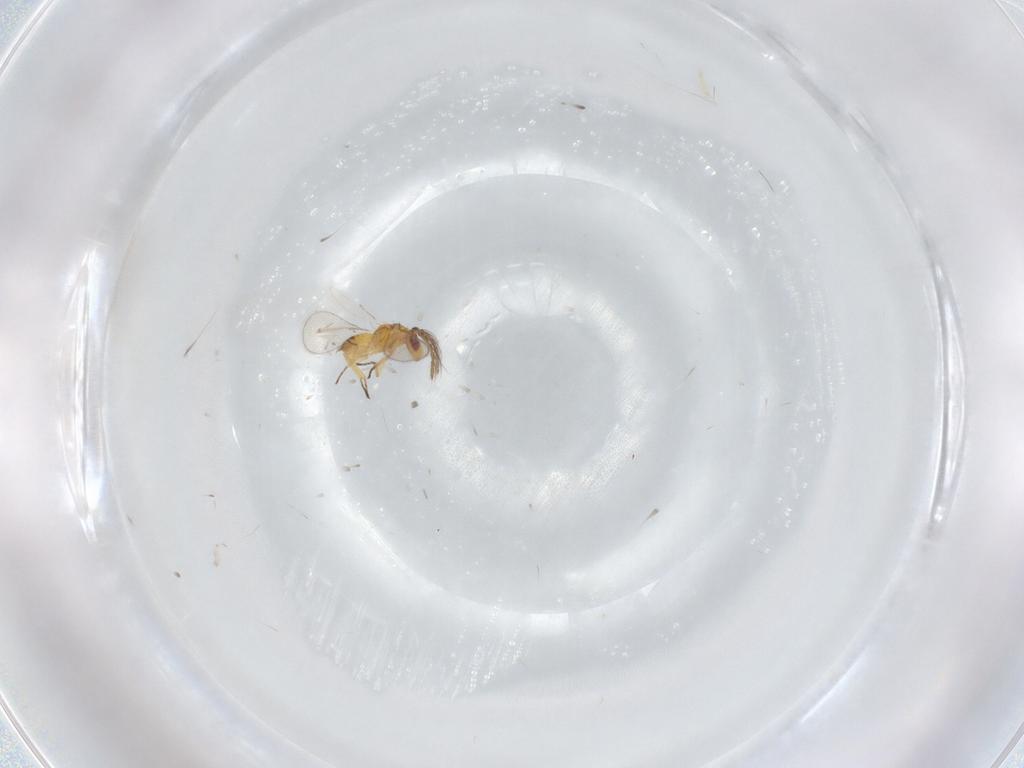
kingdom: Animalia
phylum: Arthropoda
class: Insecta
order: Hymenoptera
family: Eulophidae
